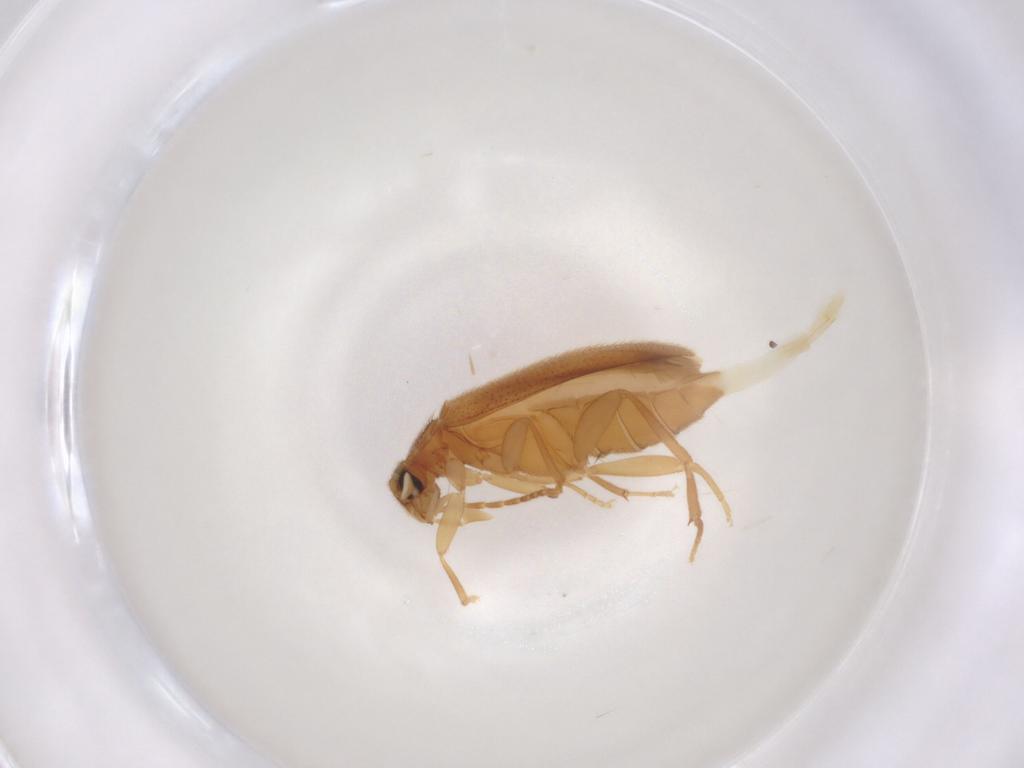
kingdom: Animalia
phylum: Arthropoda
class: Insecta
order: Coleoptera
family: Scraptiidae
